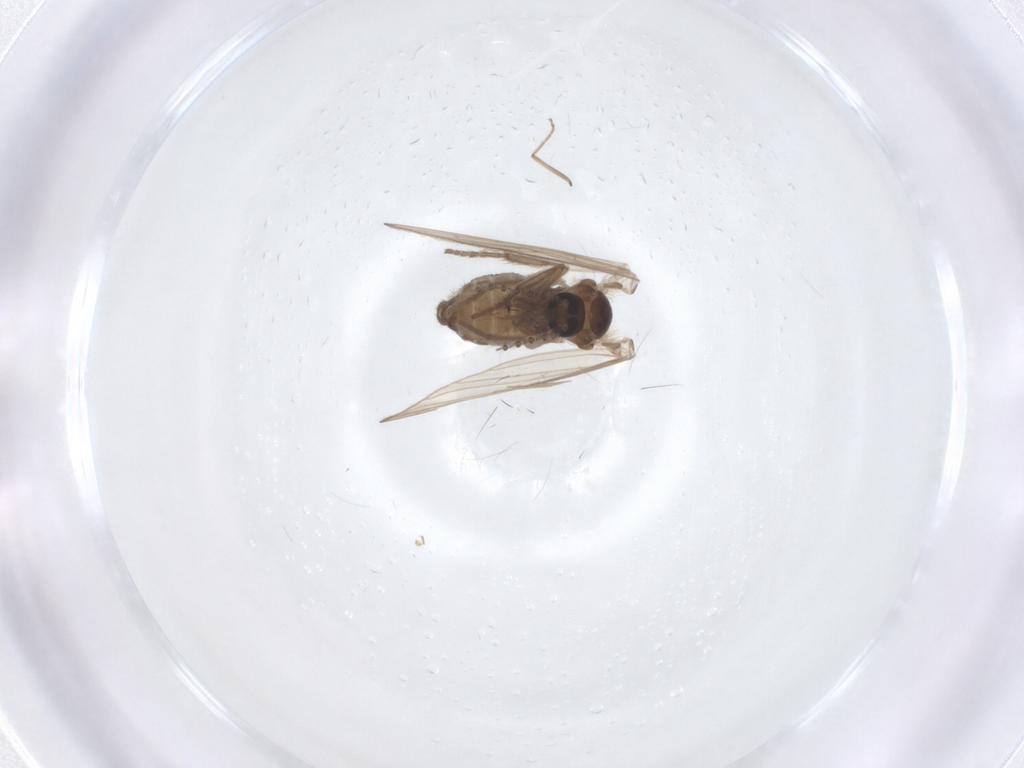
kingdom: Animalia
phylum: Arthropoda
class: Insecta
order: Diptera
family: Psychodidae
